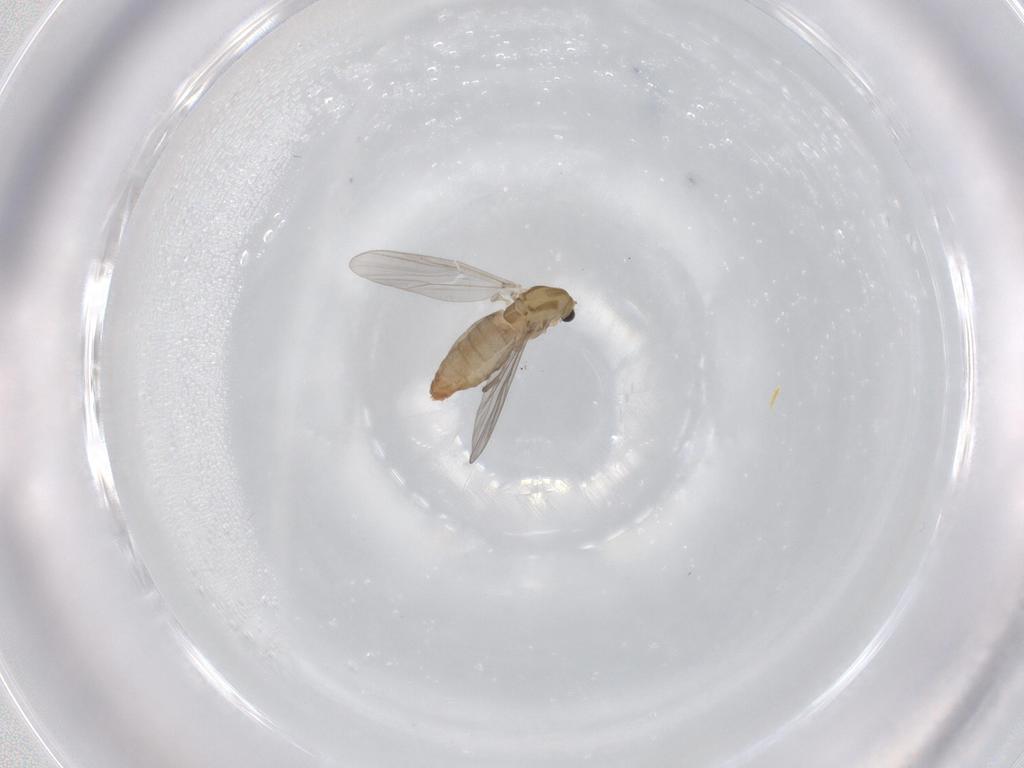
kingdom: Animalia
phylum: Arthropoda
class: Insecta
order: Diptera
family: Chironomidae
